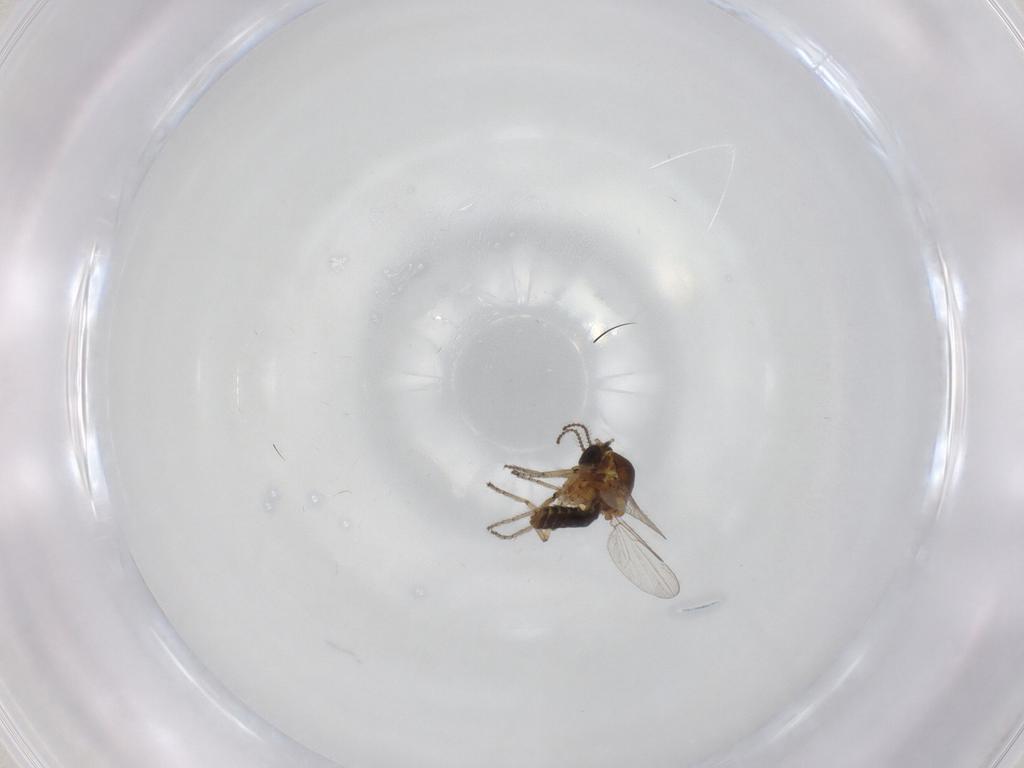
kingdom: Animalia
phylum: Arthropoda
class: Insecta
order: Diptera
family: Ceratopogonidae
